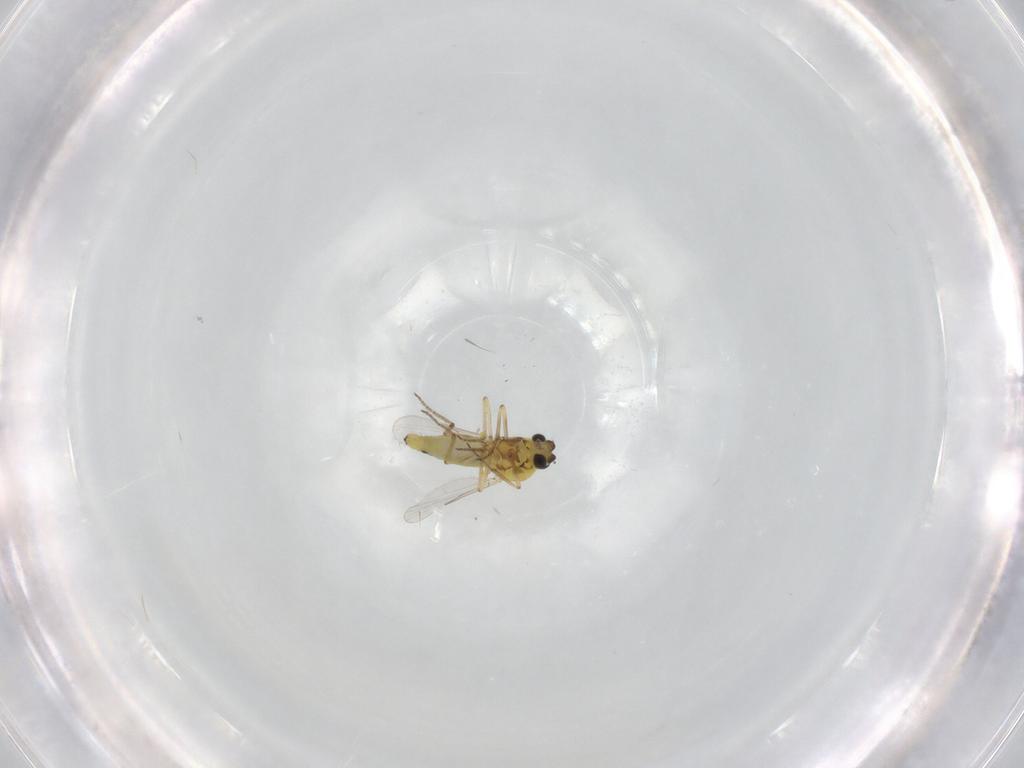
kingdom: Animalia
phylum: Arthropoda
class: Insecta
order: Diptera
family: Ceratopogonidae
